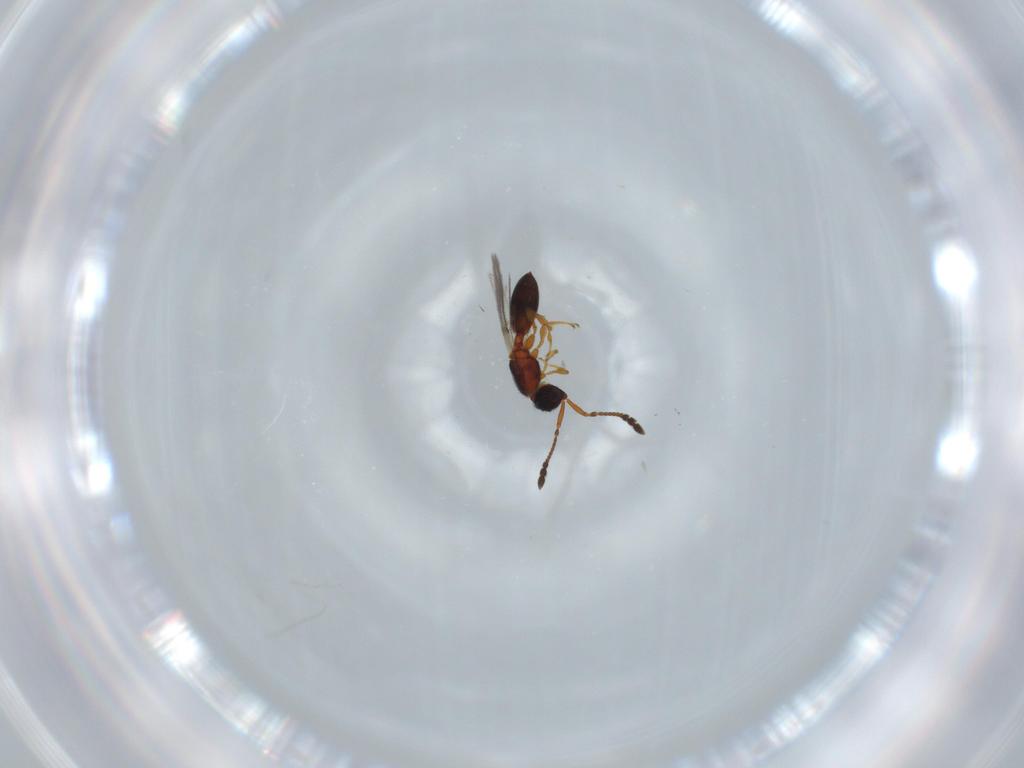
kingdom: Animalia
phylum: Arthropoda
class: Insecta
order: Hymenoptera
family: Diapriidae
